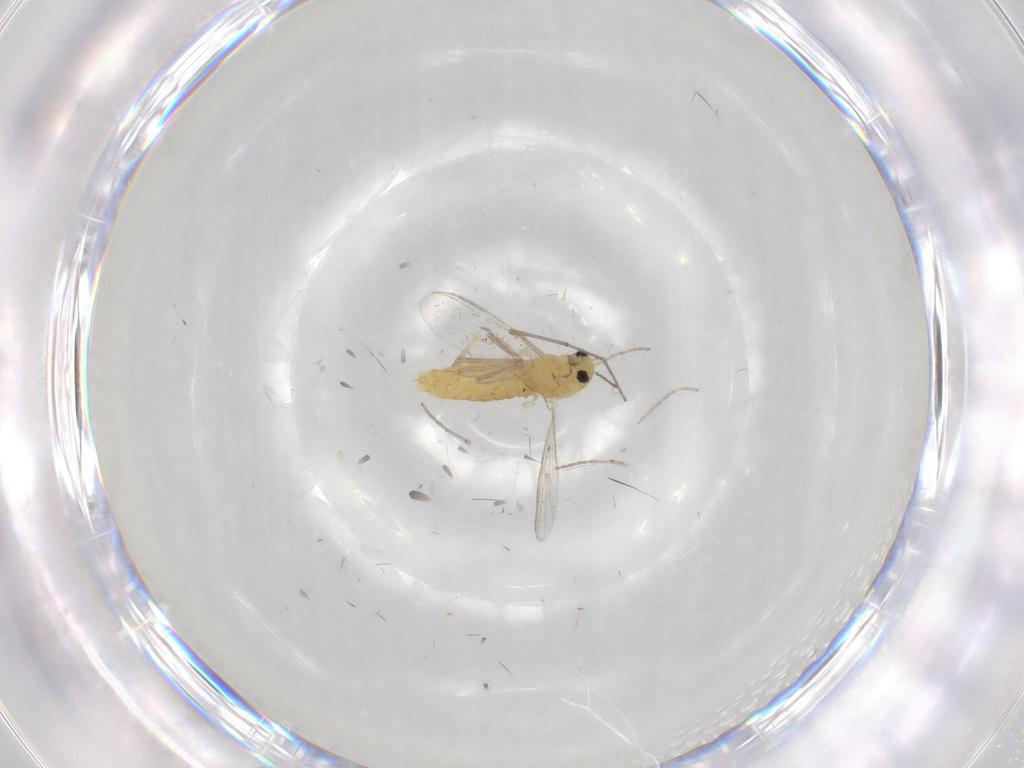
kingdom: Animalia
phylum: Arthropoda
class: Insecta
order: Diptera
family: Chironomidae
